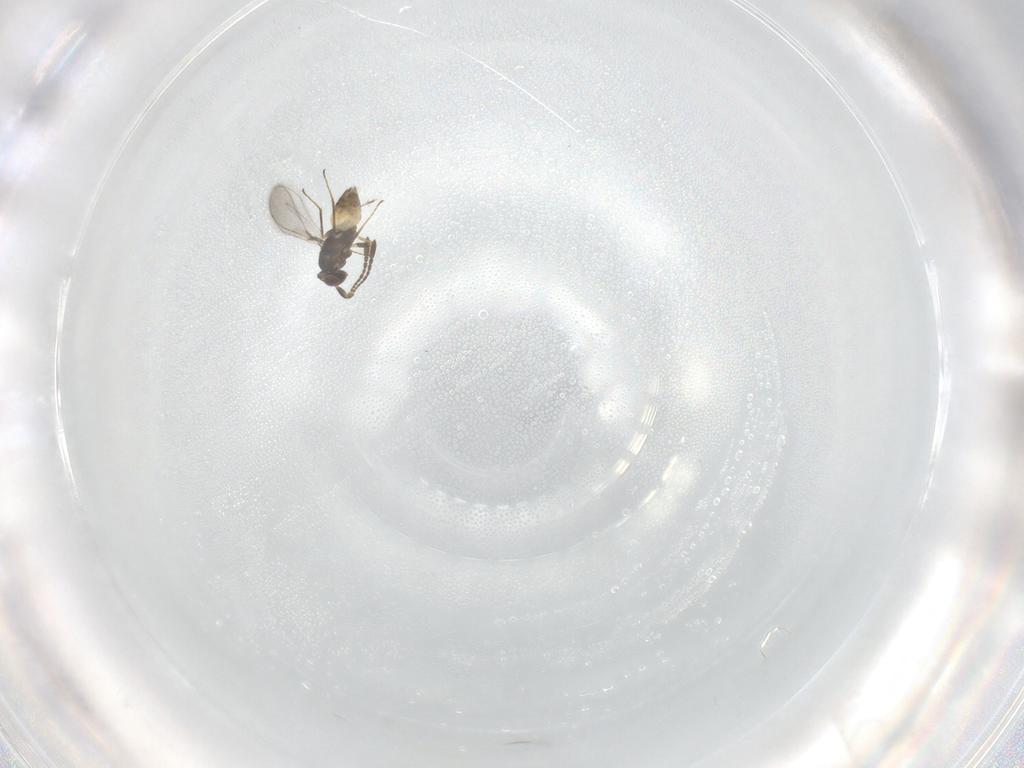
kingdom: Animalia
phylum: Arthropoda
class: Insecta
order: Hymenoptera
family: Mymaridae
